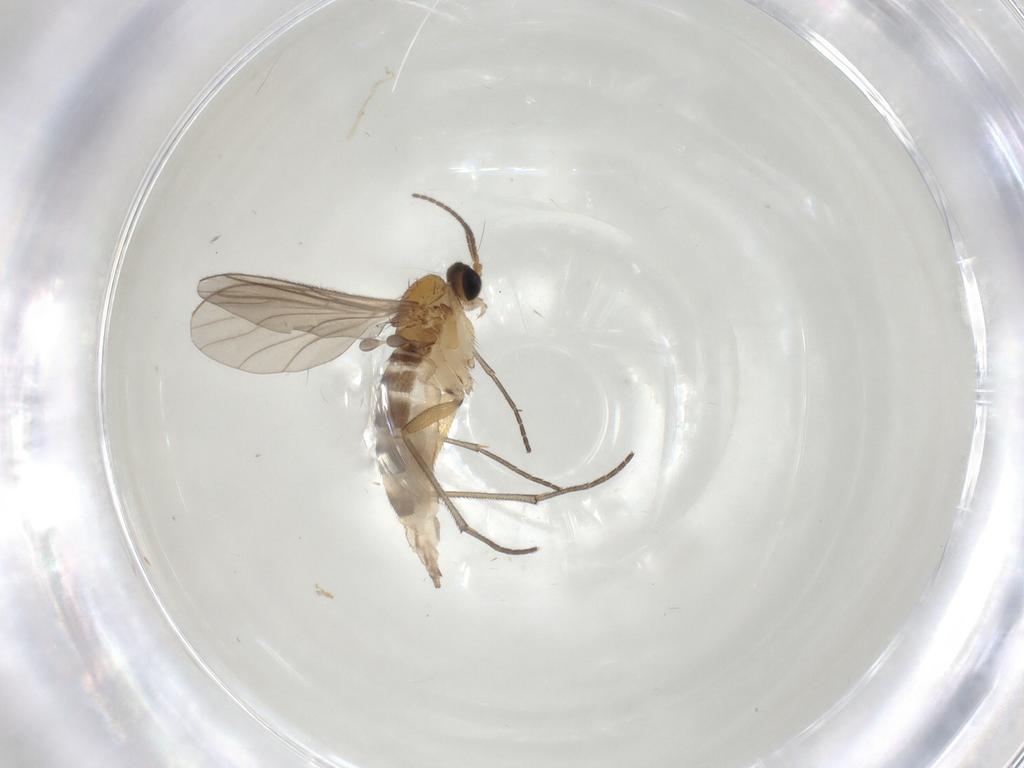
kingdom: Animalia
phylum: Arthropoda
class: Insecta
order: Diptera
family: Sciaridae
